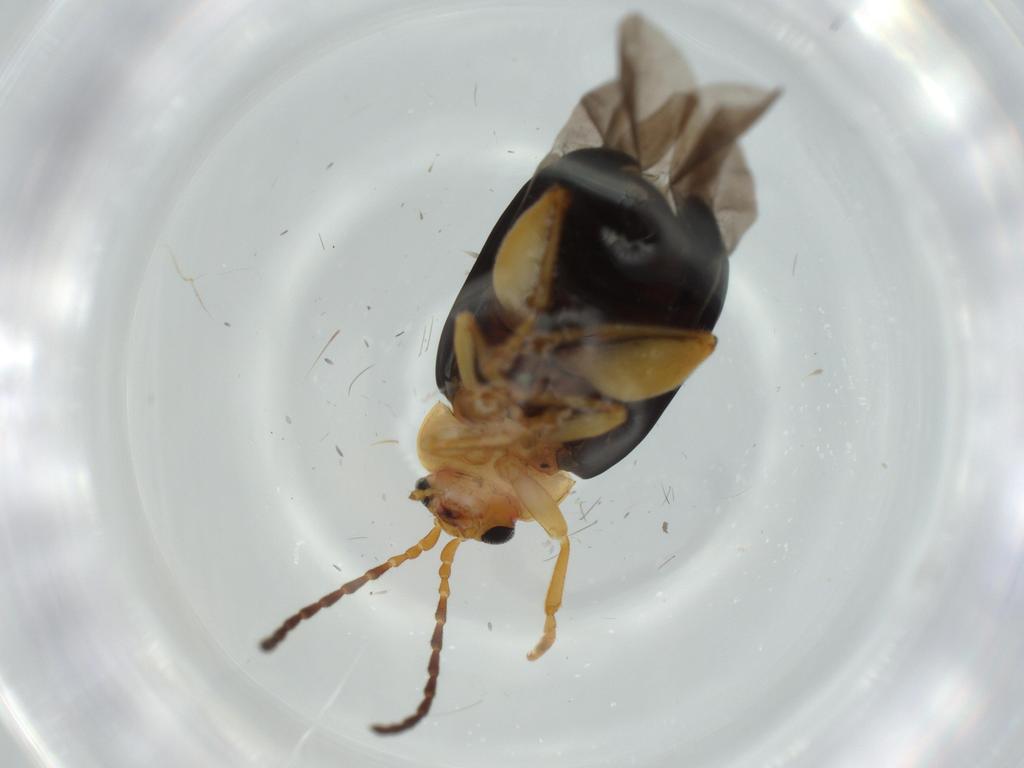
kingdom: Animalia
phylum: Arthropoda
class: Insecta
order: Coleoptera
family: Chrysomelidae
